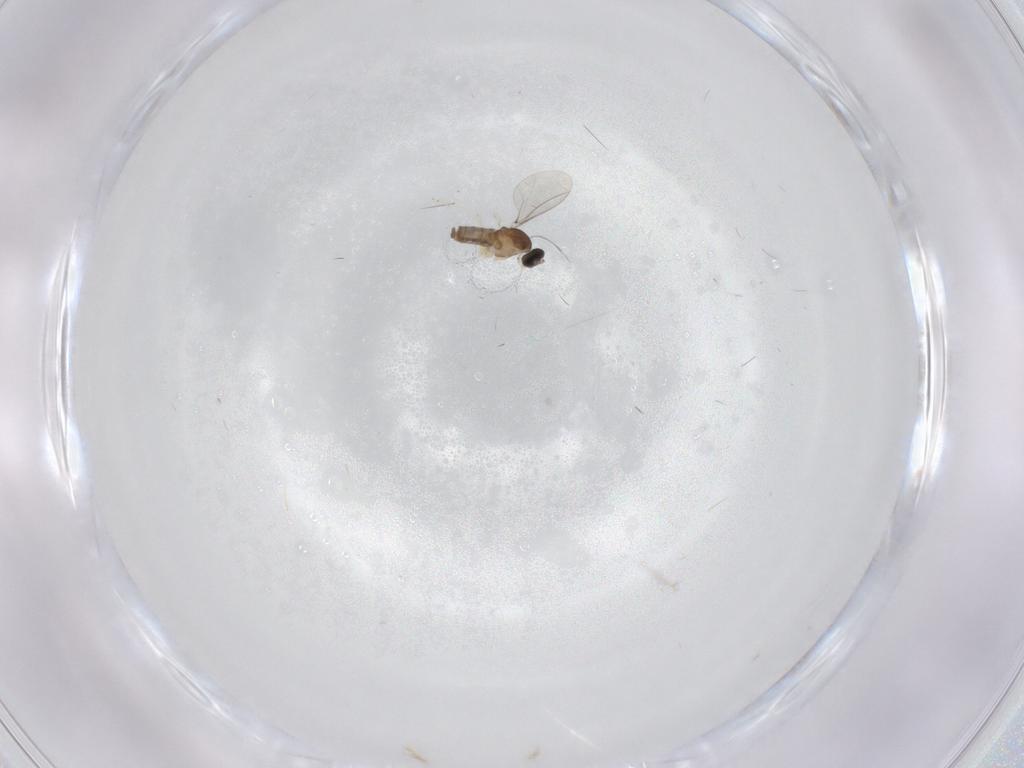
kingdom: Animalia
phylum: Arthropoda
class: Insecta
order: Diptera
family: Cecidomyiidae
